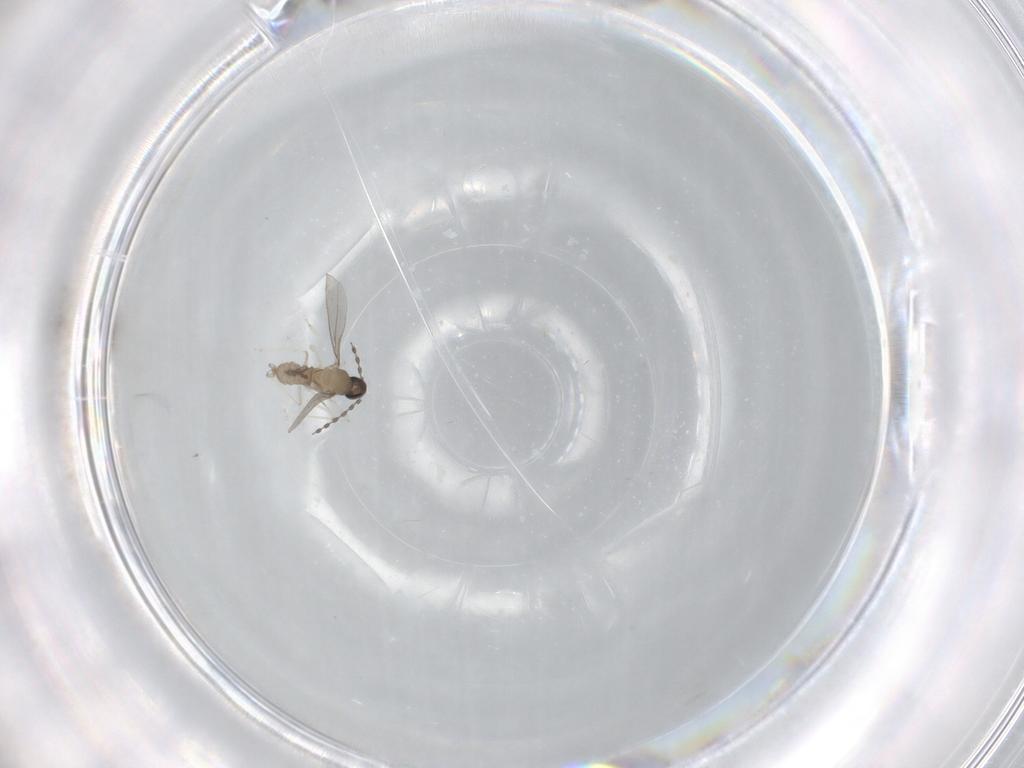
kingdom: Animalia
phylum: Arthropoda
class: Insecta
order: Diptera
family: Cecidomyiidae
